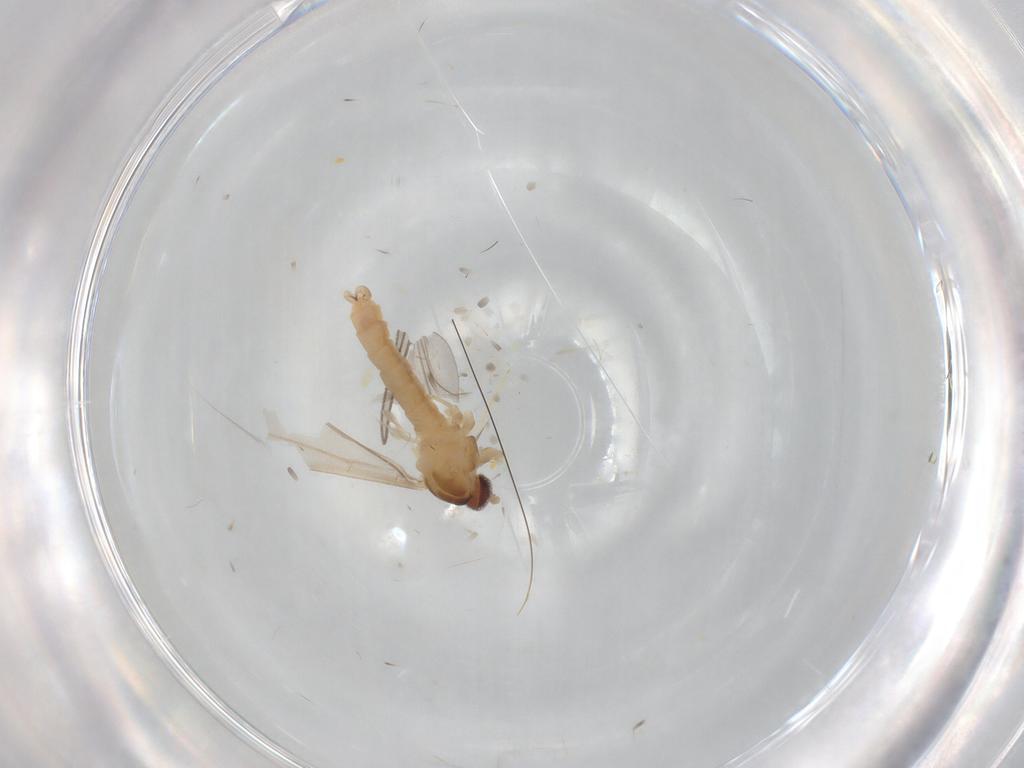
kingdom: Animalia
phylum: Arthropoda
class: Insecta
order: Diptera
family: Cecidomyiidae
